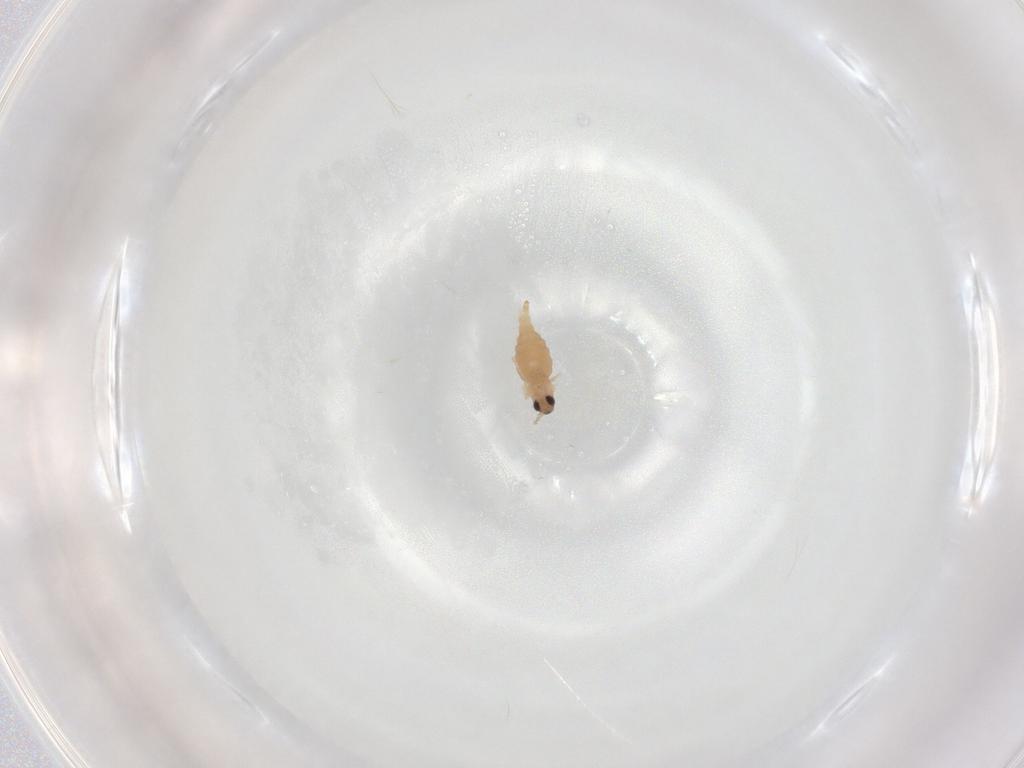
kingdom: Animalia
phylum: Arthropoda
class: Insecta
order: Diptera
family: Cecidomyiidae
